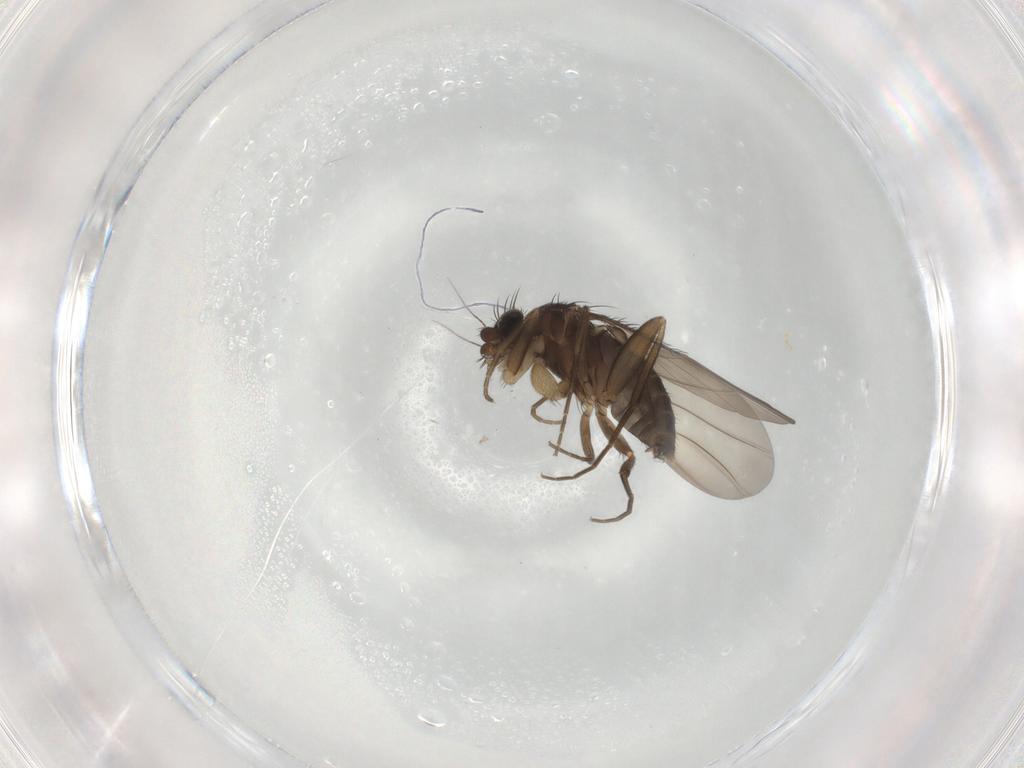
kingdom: Animalia
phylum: Arthropoda
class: Insecta
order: Diptera
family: Phoridae
